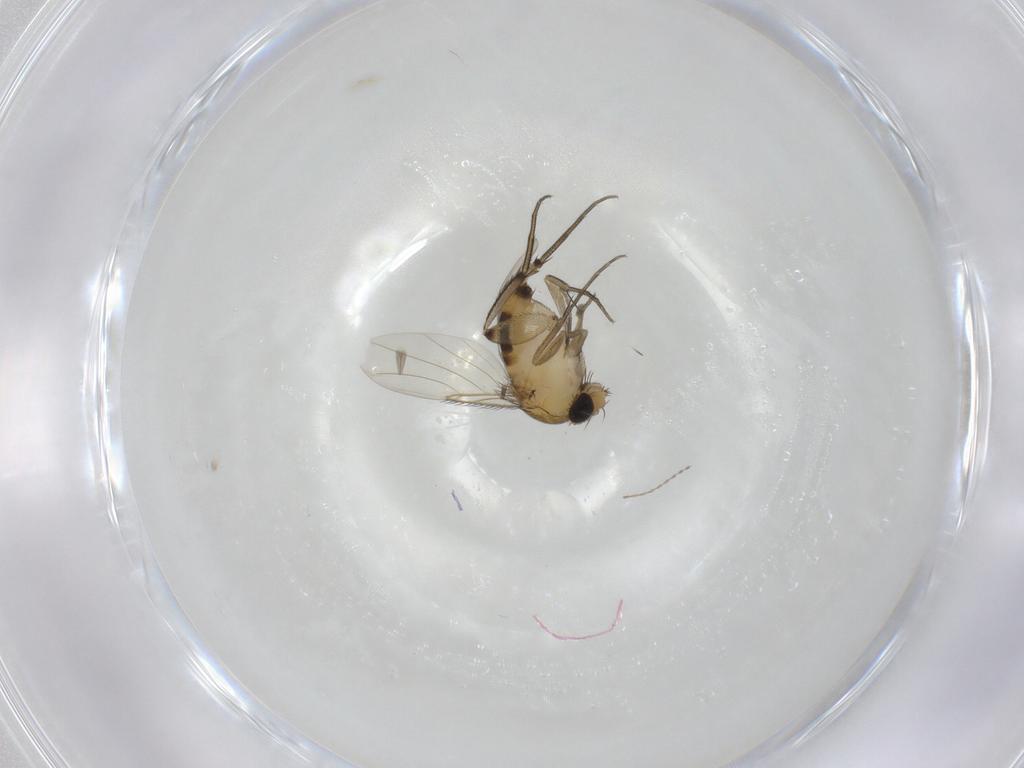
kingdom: Animalia
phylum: Arthropoda
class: Insecta
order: Diptera
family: Phoridae
